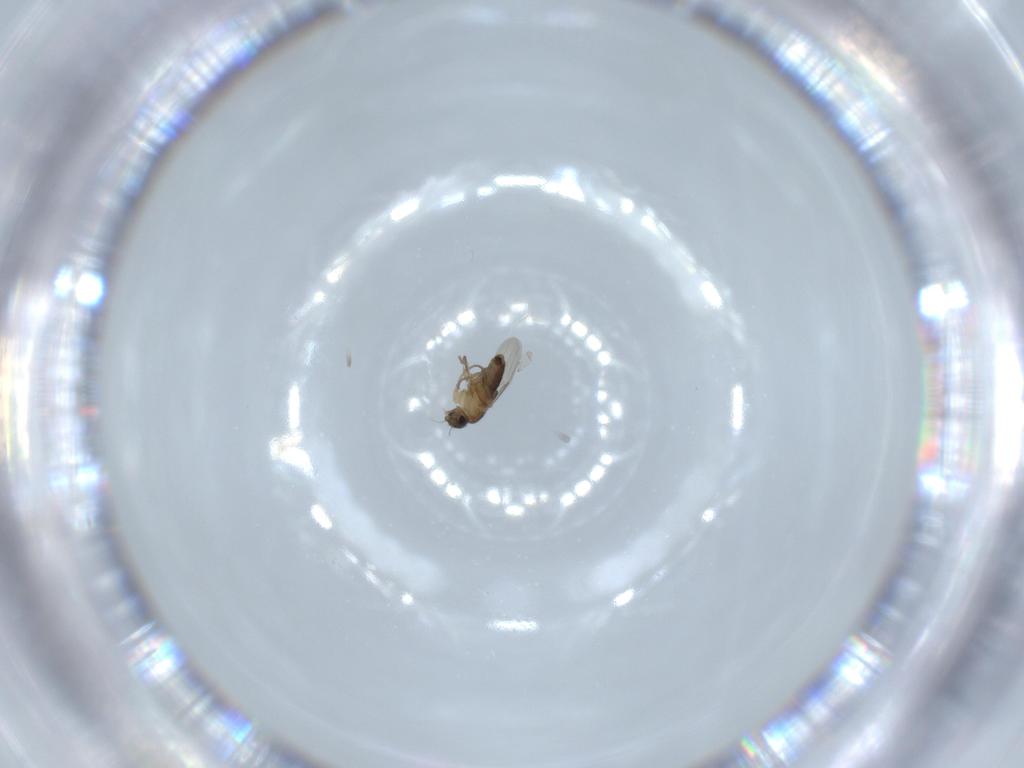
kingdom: Animalia
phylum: Arthropoda
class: Insecta
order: Diptera
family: Phoridae
